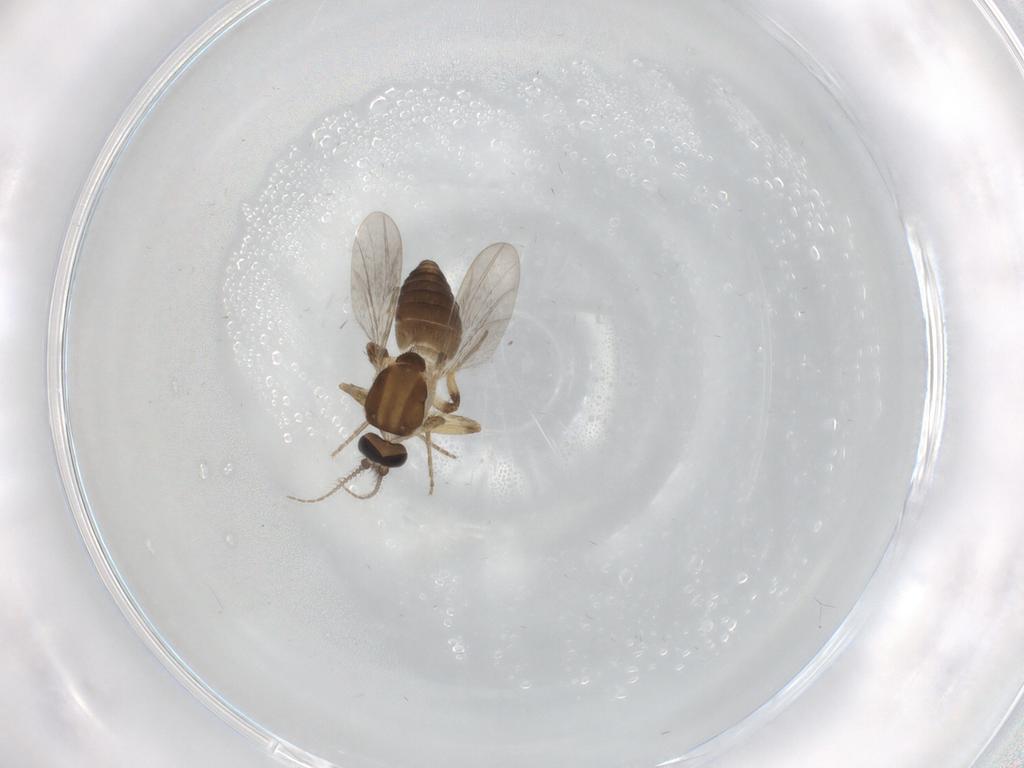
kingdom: Animalia
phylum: Arthropoda
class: Insecta
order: Diptera
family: Ceratopogonidae
